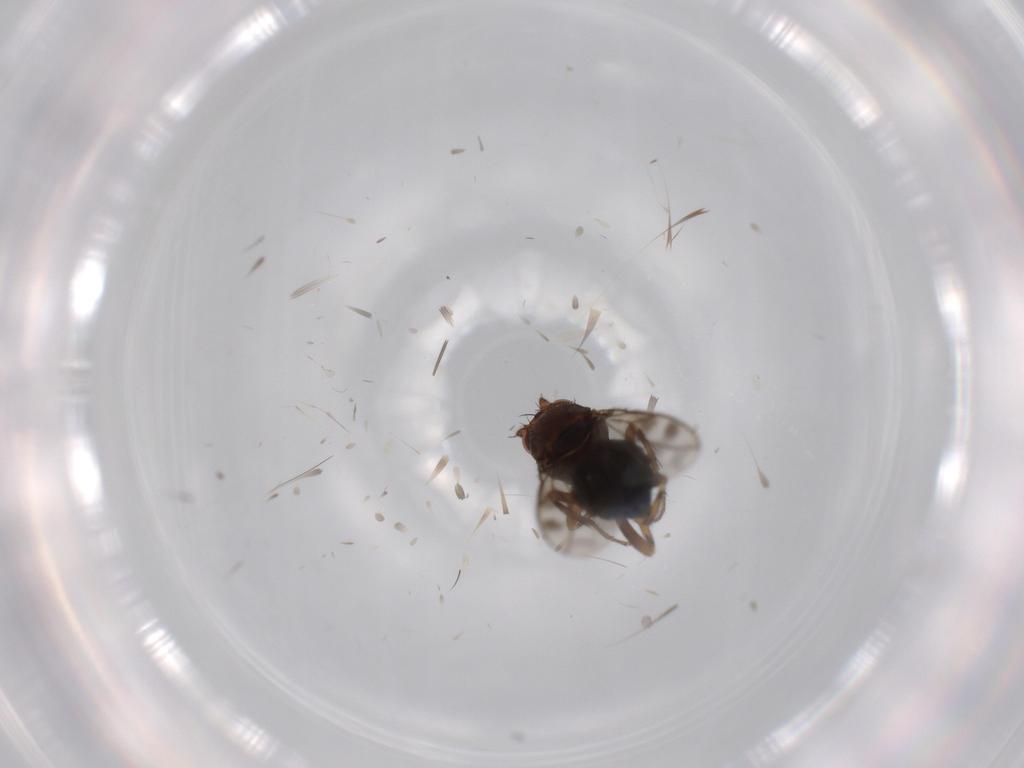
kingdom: Animalia
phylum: Arthropoda
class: Insecta
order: Diptera
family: Sphaeroceridae
